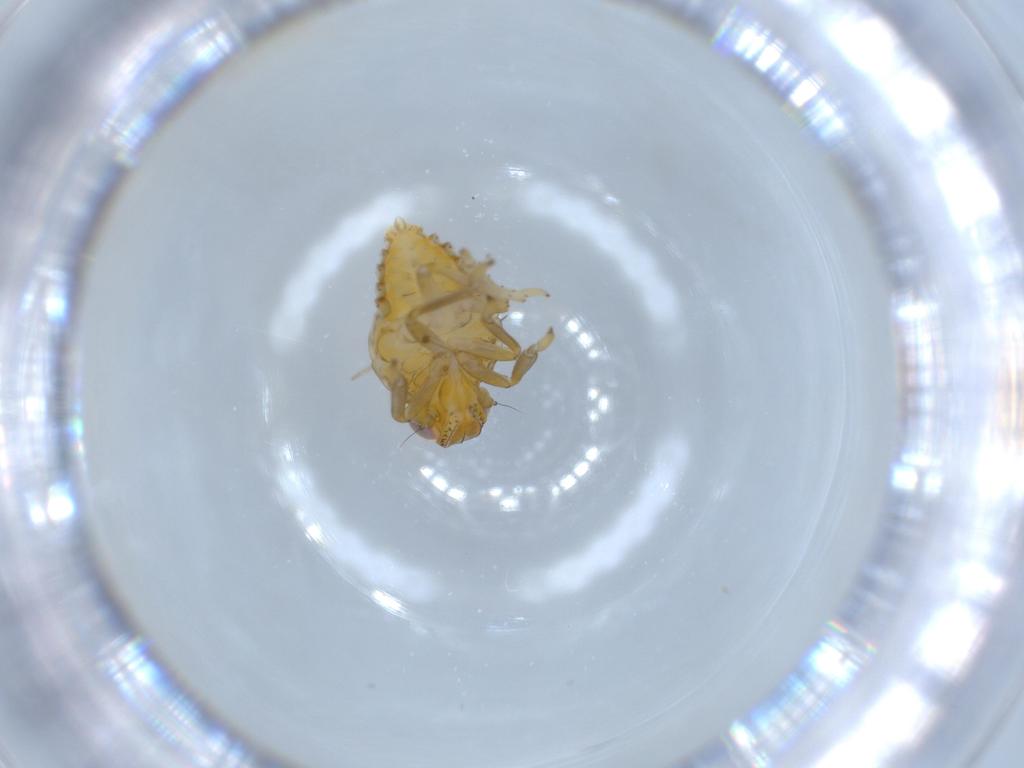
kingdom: Animalia
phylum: Arthropoda
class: Insecta
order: Hemiptera
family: Issidae
